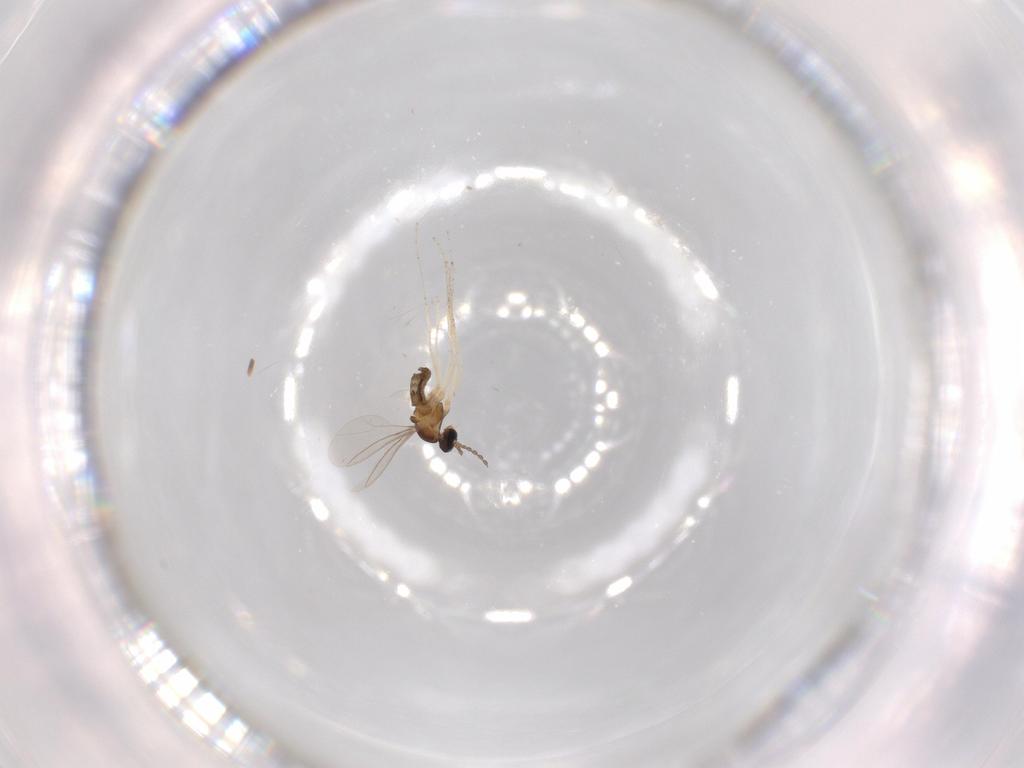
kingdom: Animalia
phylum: Arthropoda
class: Insecta
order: Diptera
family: Cecidomyiidae
